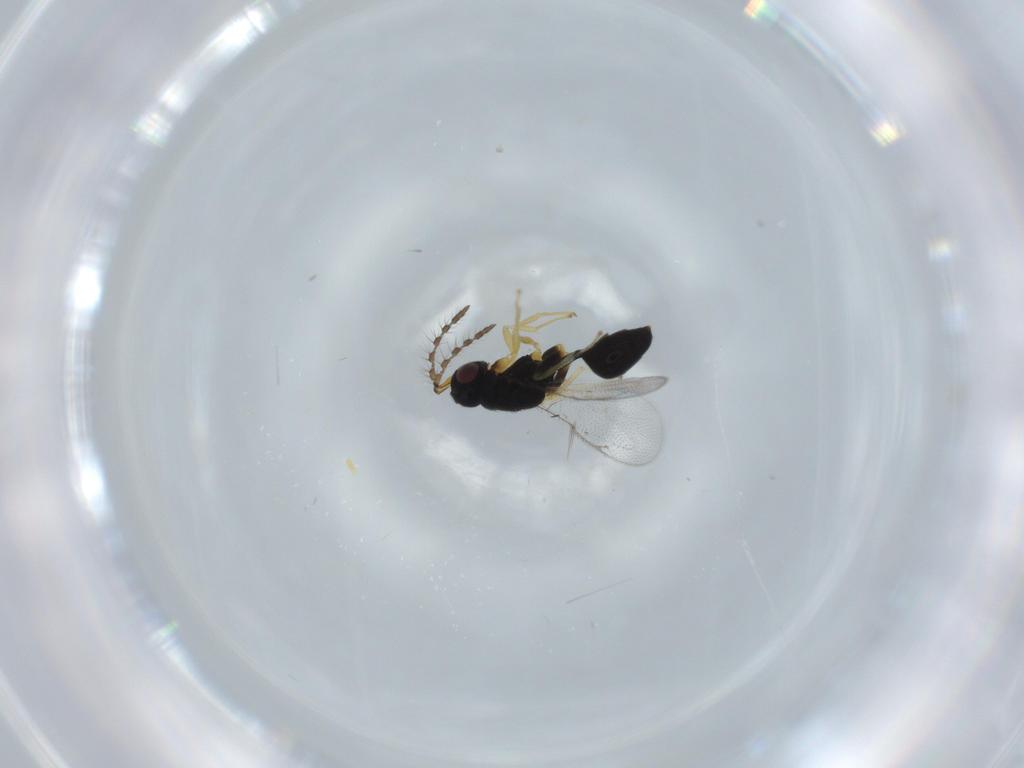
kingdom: Animalia
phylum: Arthropoda
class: Insecta
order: Hymenoptera
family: Eurytomidae
